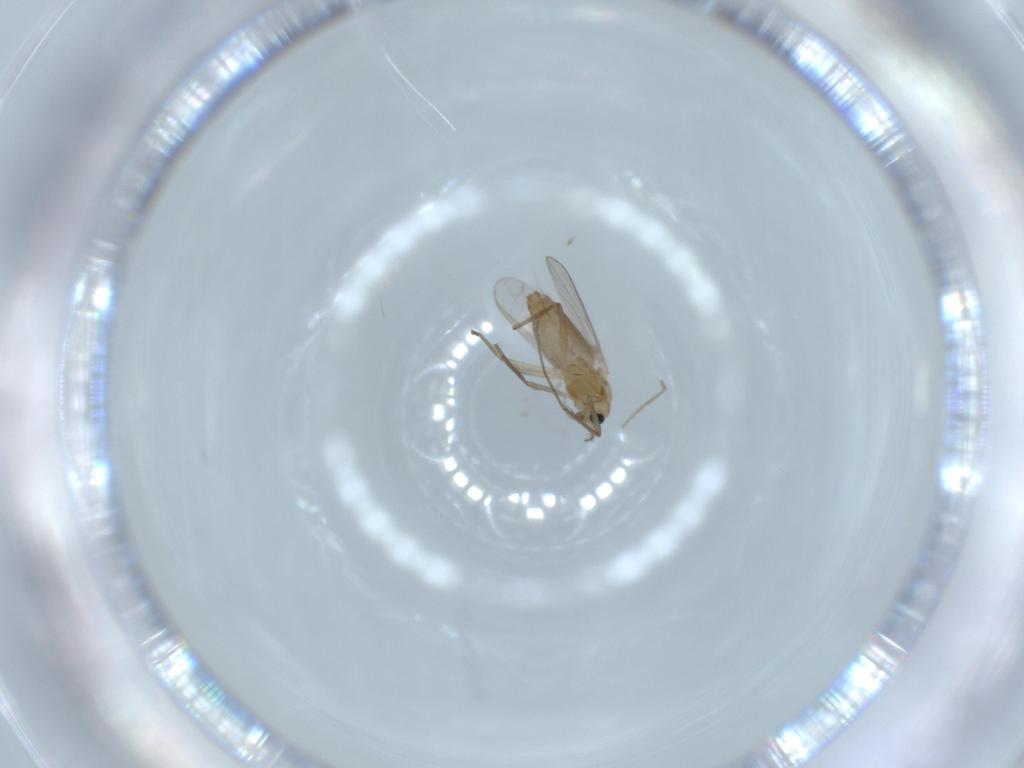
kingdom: Animalia
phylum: Arthropoda
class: Insecta
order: Diptera
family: Chironomidae
